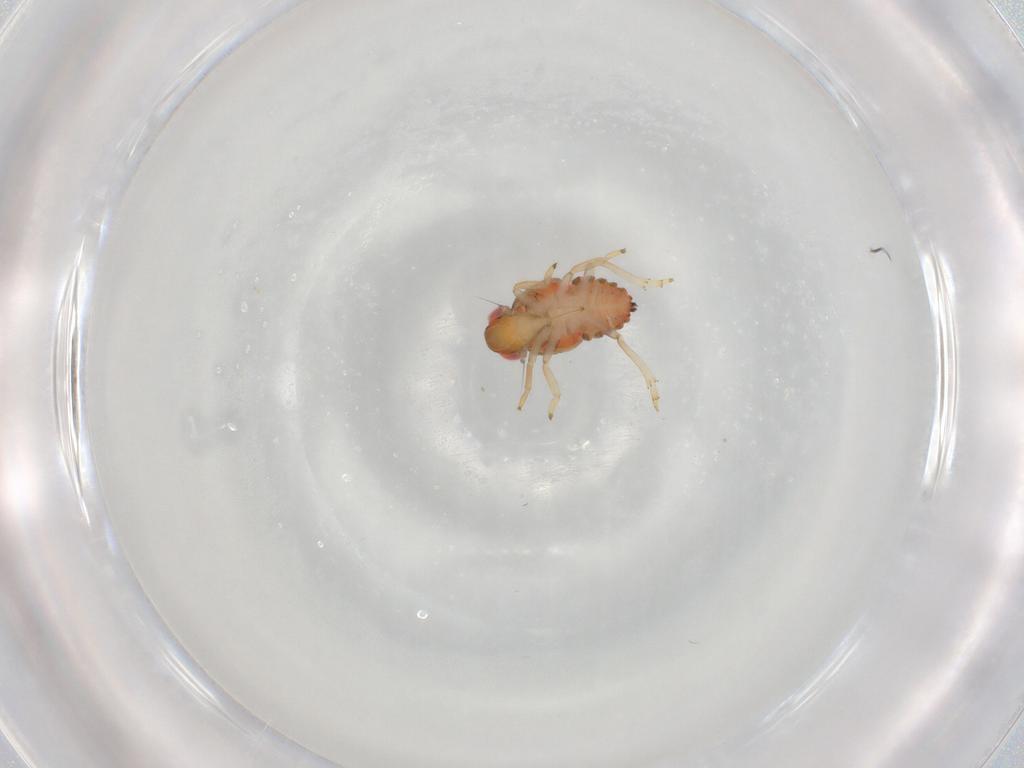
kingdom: Animalia
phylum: Arthropoda
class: Insecta
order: Hemiptera
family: Issidae
